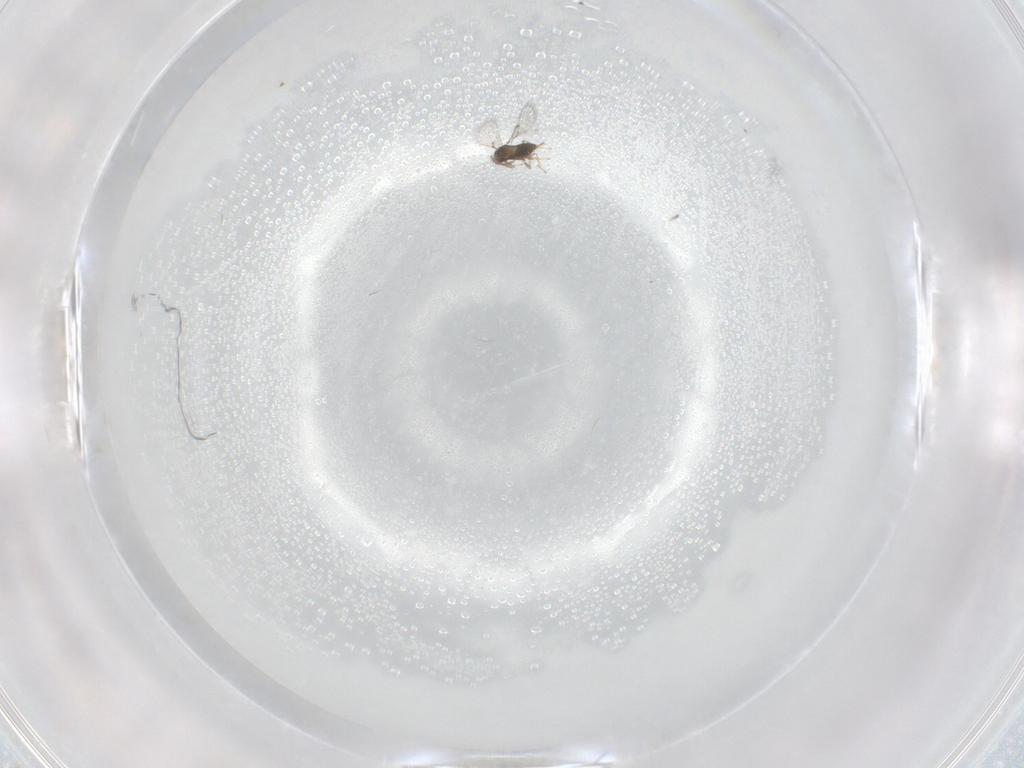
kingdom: Animalia
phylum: Arthropoda
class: Insecta
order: Hymenoptera
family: Trichogrammatidae
